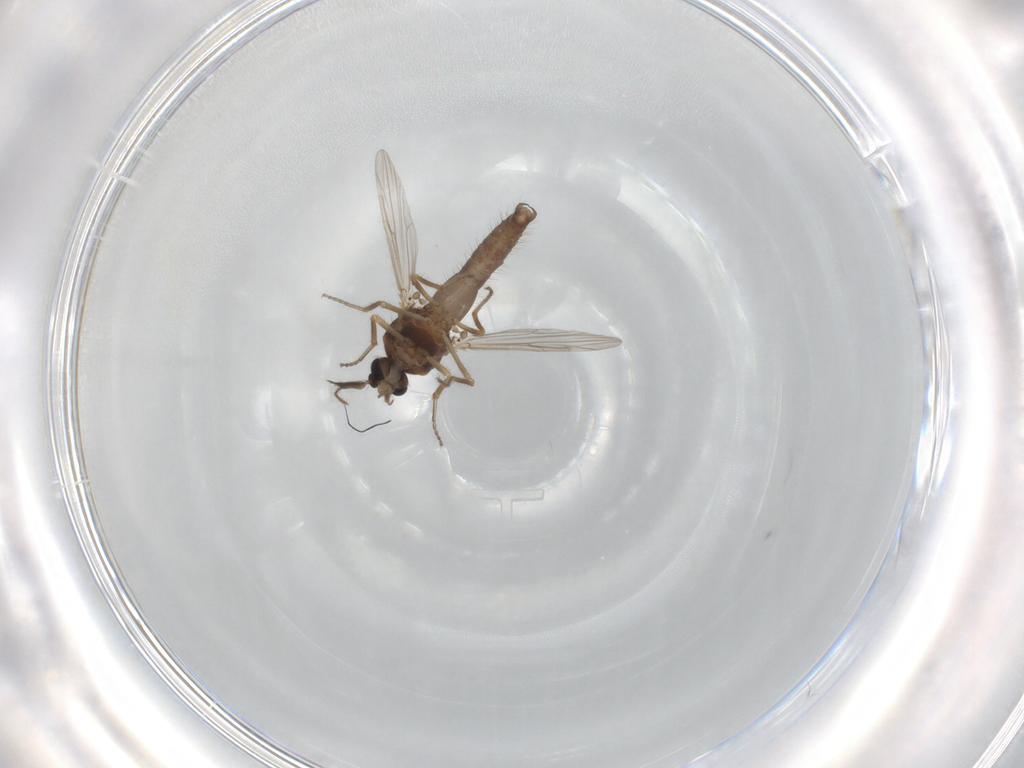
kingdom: Animalia
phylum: Arthropoda
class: Insecta
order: Diptera
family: Ceratopogonidae
